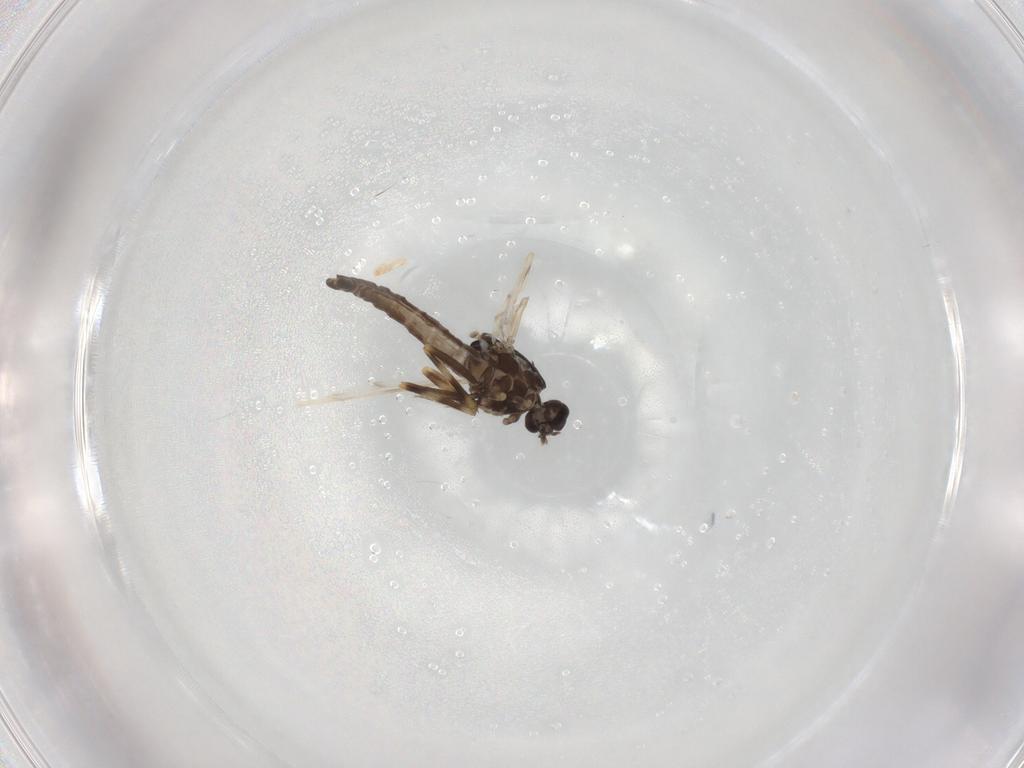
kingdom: Animalia
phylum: Arthropoda
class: Insecta
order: Diptera
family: Ceratopogonidae
